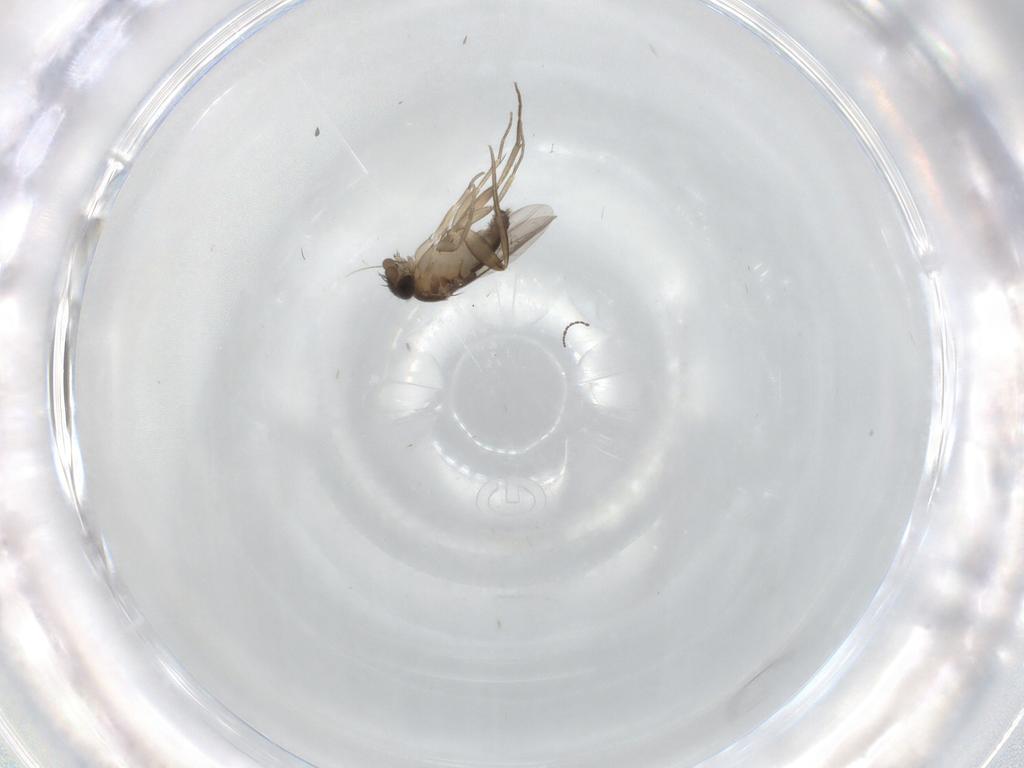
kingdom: Animalia
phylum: Arthropoda
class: Insecta
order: Diptera
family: Phoridae
